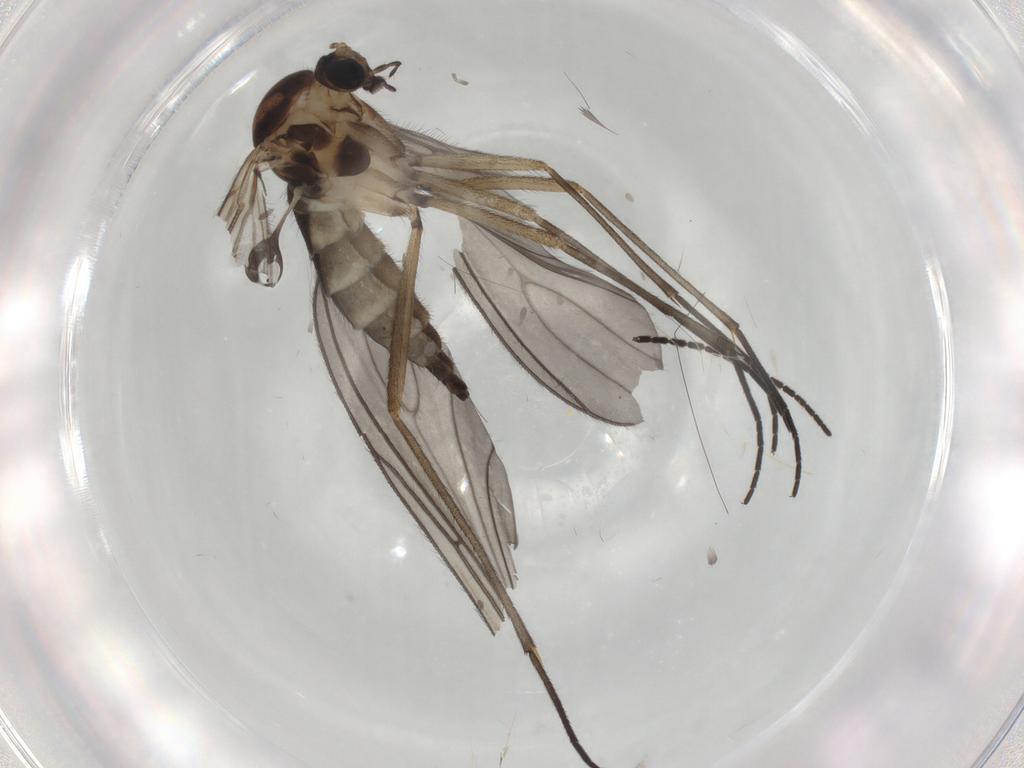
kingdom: Animalia
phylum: Arthropoda
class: Insecta
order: Diptera
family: Sciaridae
